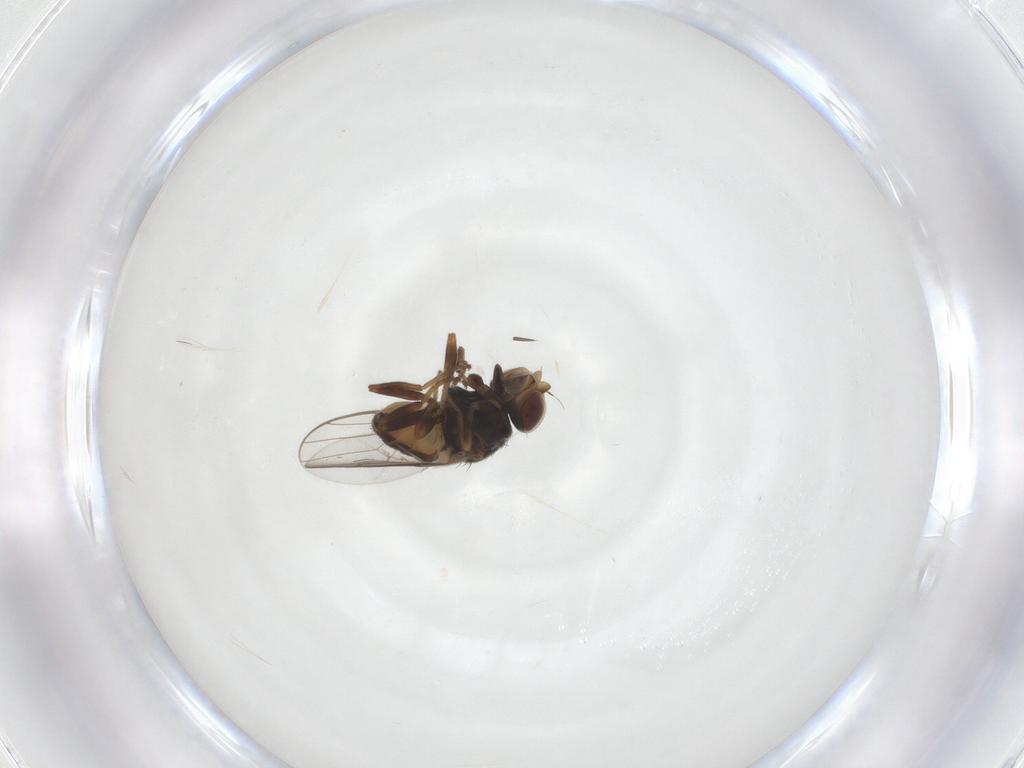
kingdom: Animalia
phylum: Arthropoda
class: Insecta
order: Diptera
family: Chloropidae
